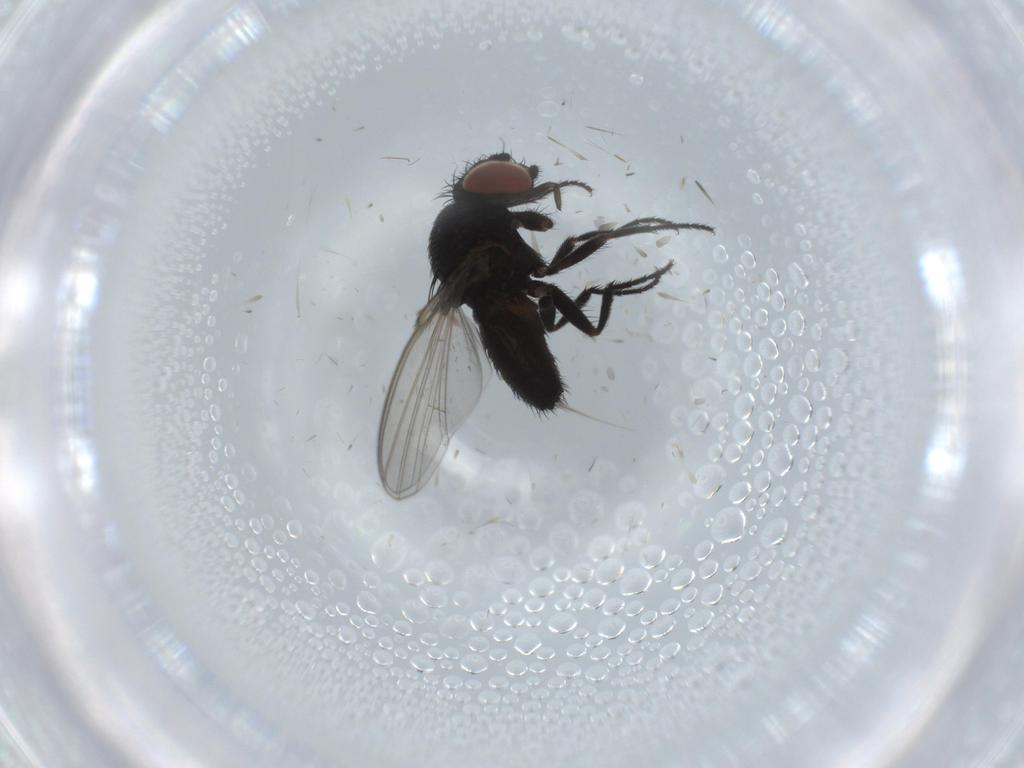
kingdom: Animalia
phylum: Arthropoda
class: Insecta
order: Diptera
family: Milichiidae
